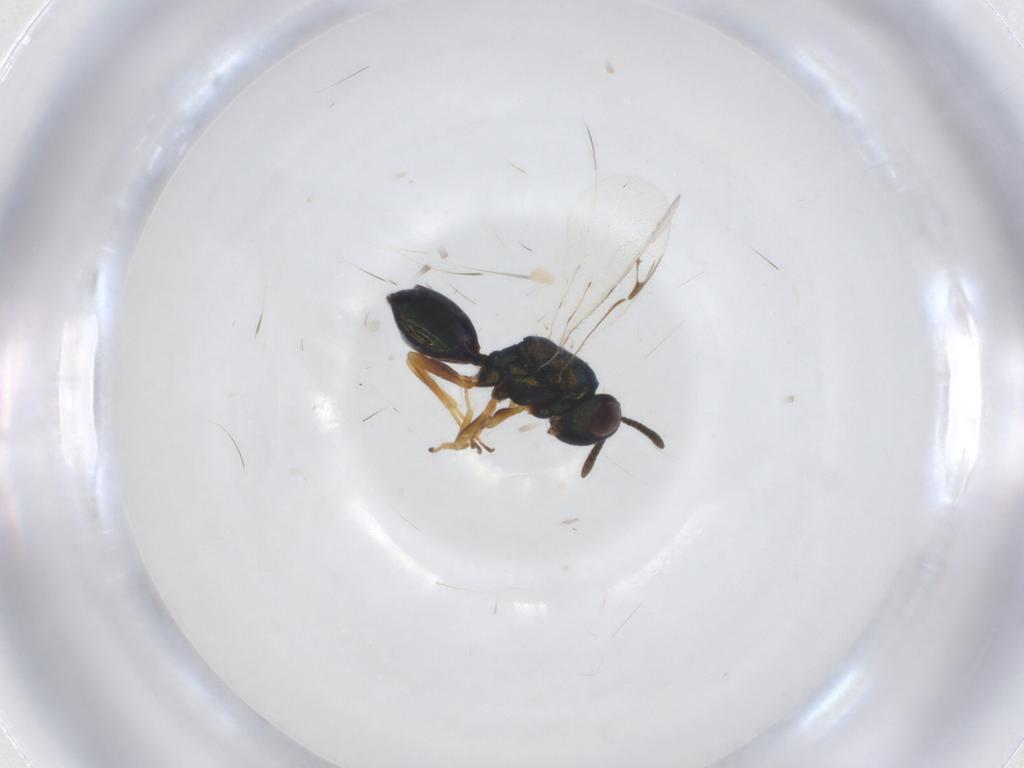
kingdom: Animalia
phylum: Arthropoda
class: Insecta
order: Hymenoptera
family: Pteromalidae
